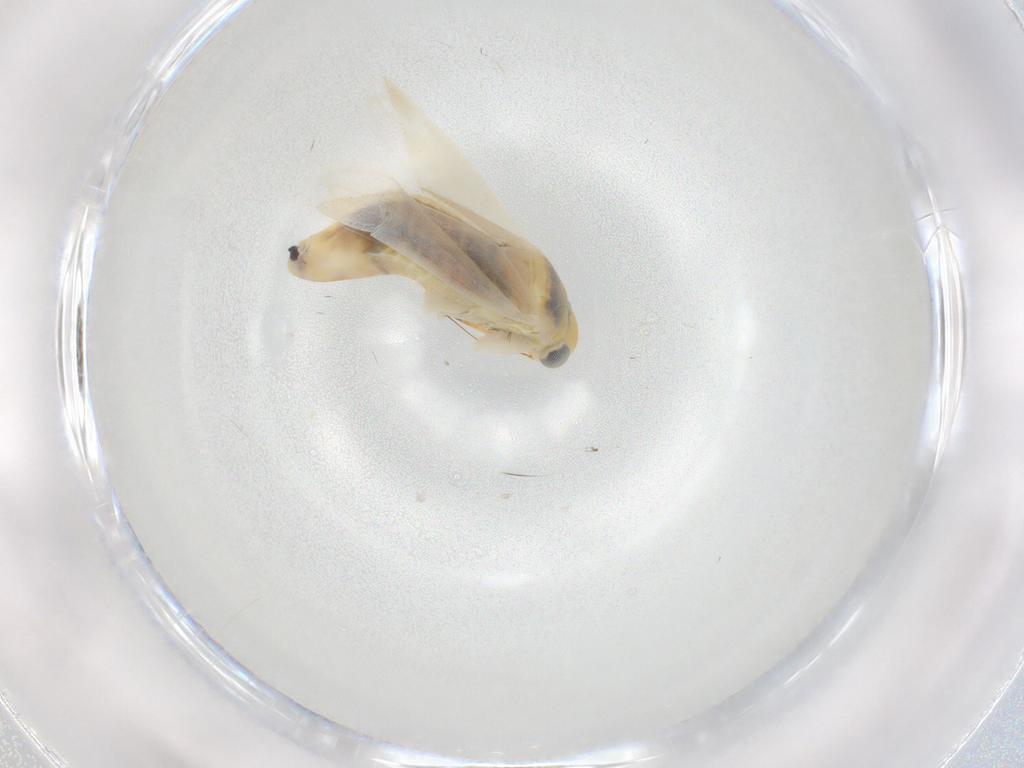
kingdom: Animalia
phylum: Arthropoda
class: Insecta
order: Hemiptera
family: Miridae
